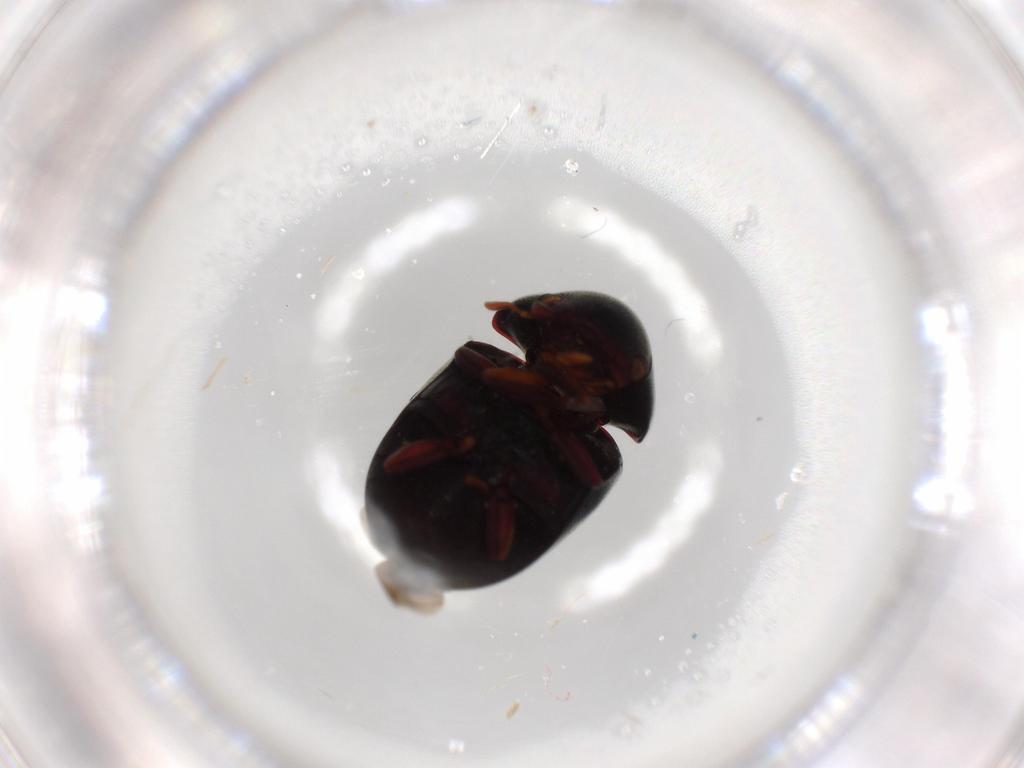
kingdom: Animalia
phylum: Arthropoda
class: Insecta
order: Coleoptera
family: Ptinidae
